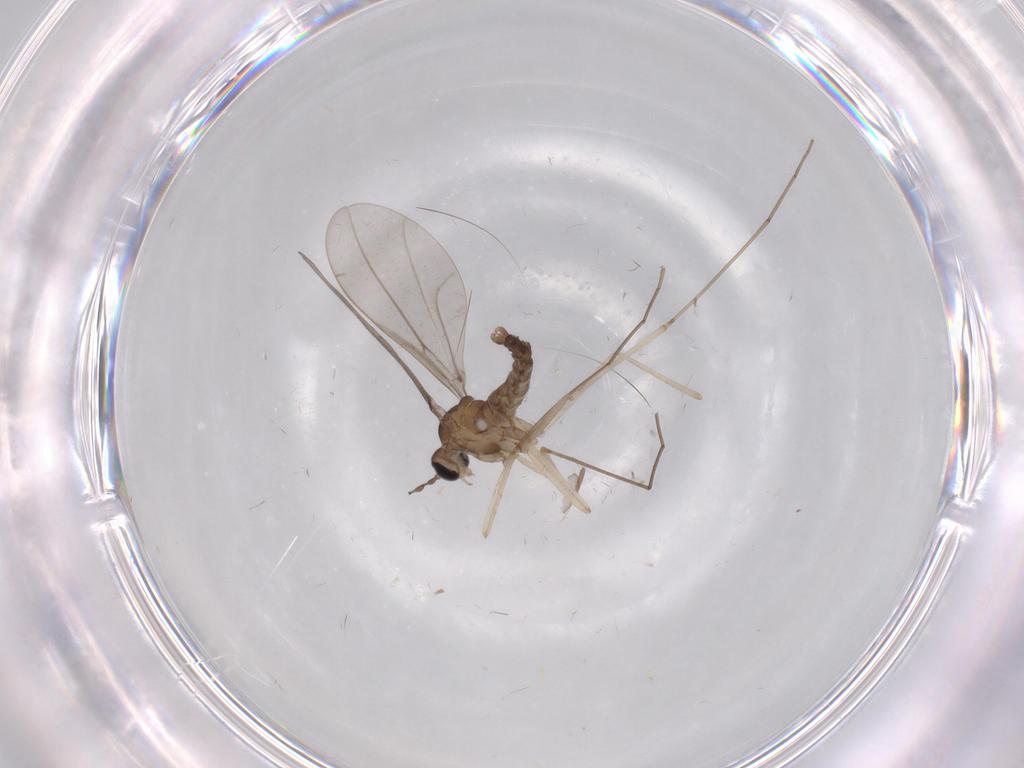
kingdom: Animalia
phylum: Arthropoda
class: Insecta
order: Diptera
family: Cecidomyiidae
